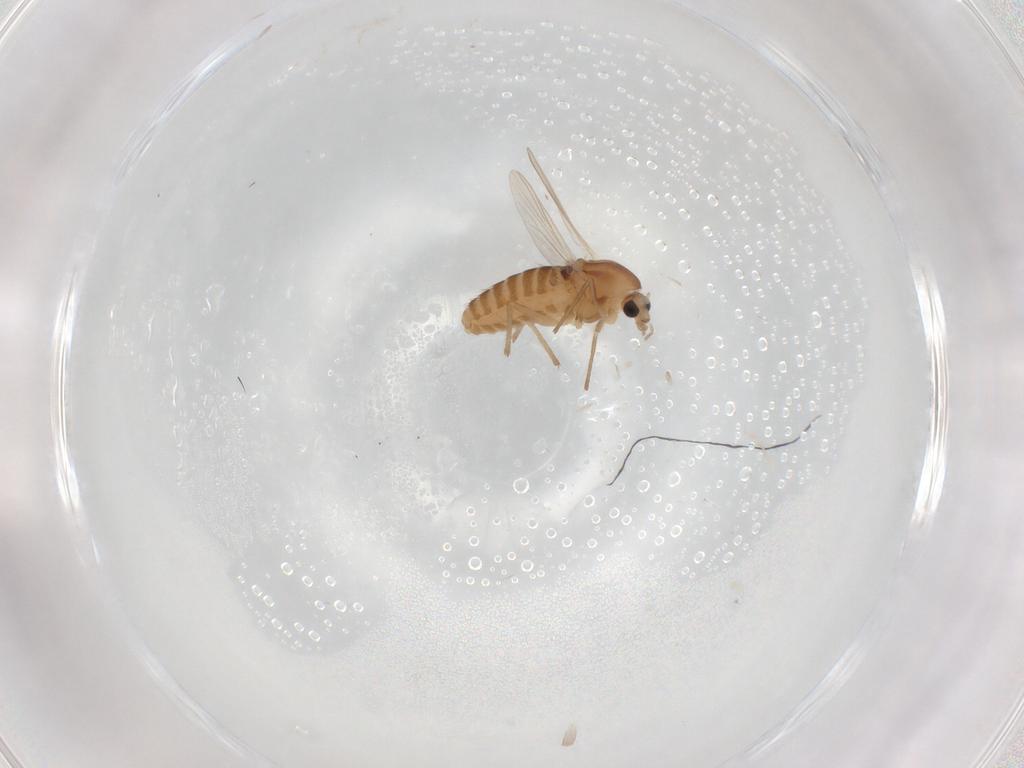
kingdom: Animalia
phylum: Arthropoda
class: Insecta
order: Diptera
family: Chironomidae
